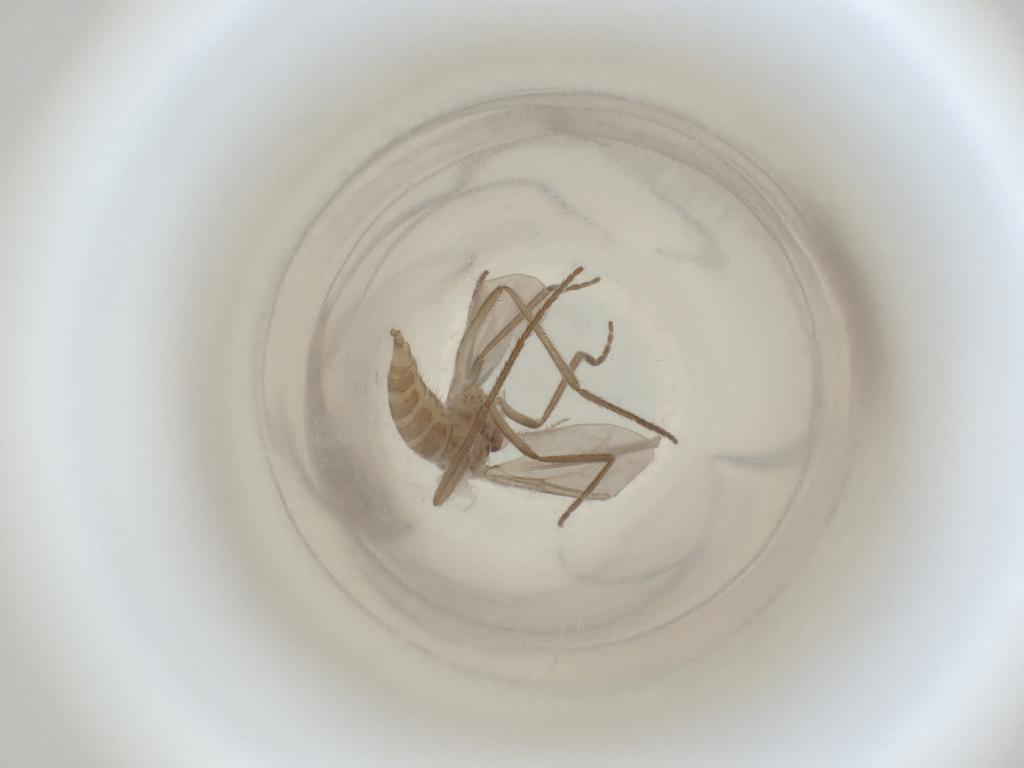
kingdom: Animalia
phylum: Arthropoda
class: Insecta
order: Diptera
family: Cecidomyiidae
